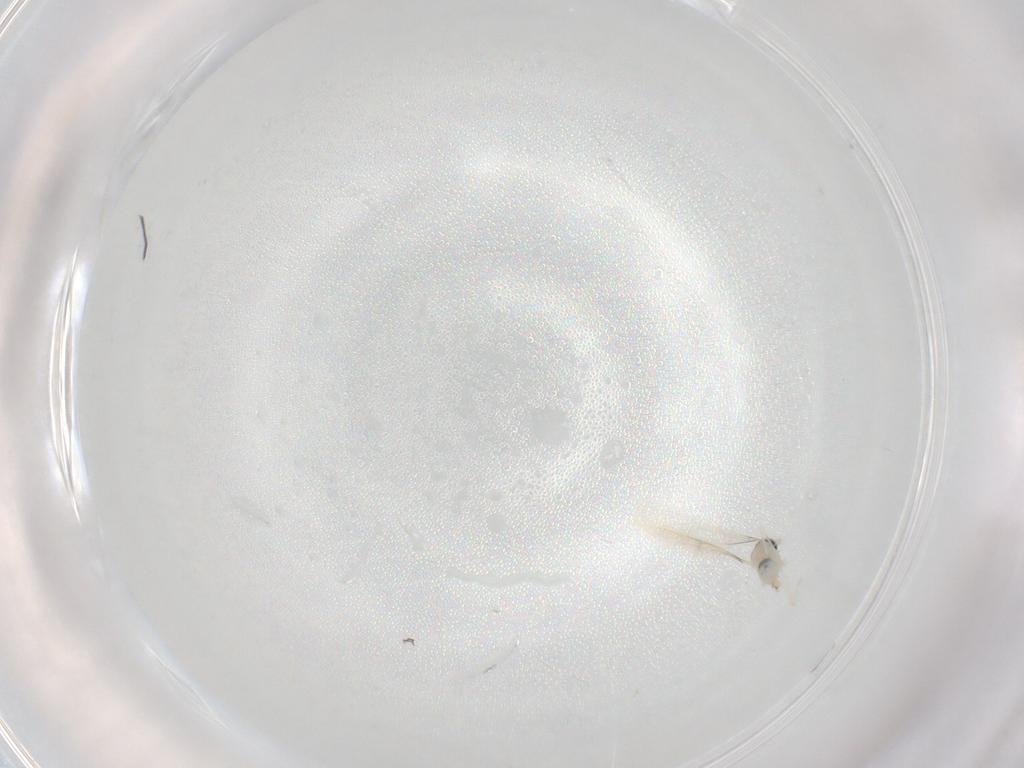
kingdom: Animalia
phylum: Arthropoda
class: Insecta
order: Diptera
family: Cecidomyiidae
